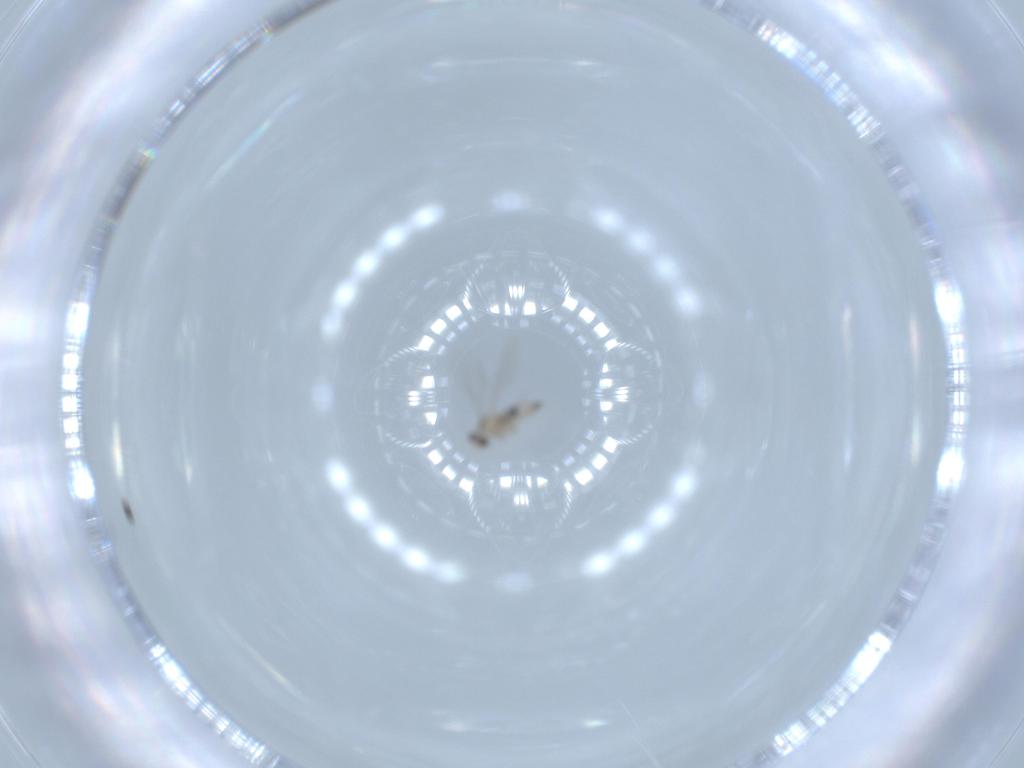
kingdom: Animalia
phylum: Arthropoda
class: Insecta
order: Diptera
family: Cecidomyiidae
